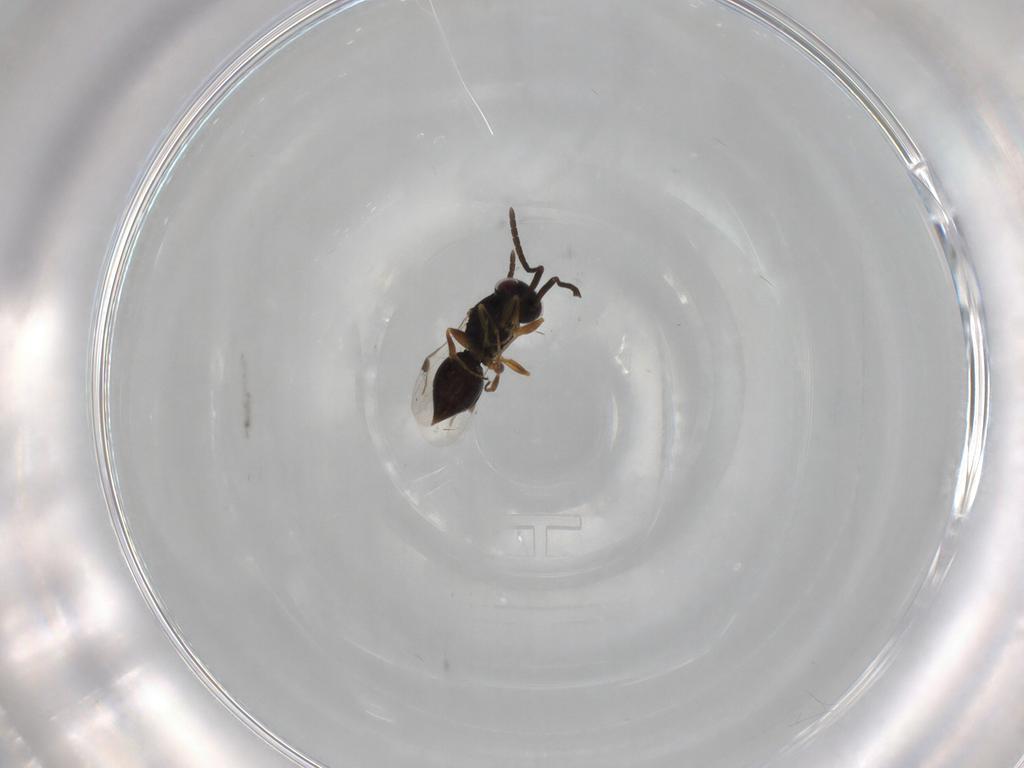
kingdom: Animalia
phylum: Arthropoda
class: Insecta
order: Hymenoptera
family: Megaspilidae
